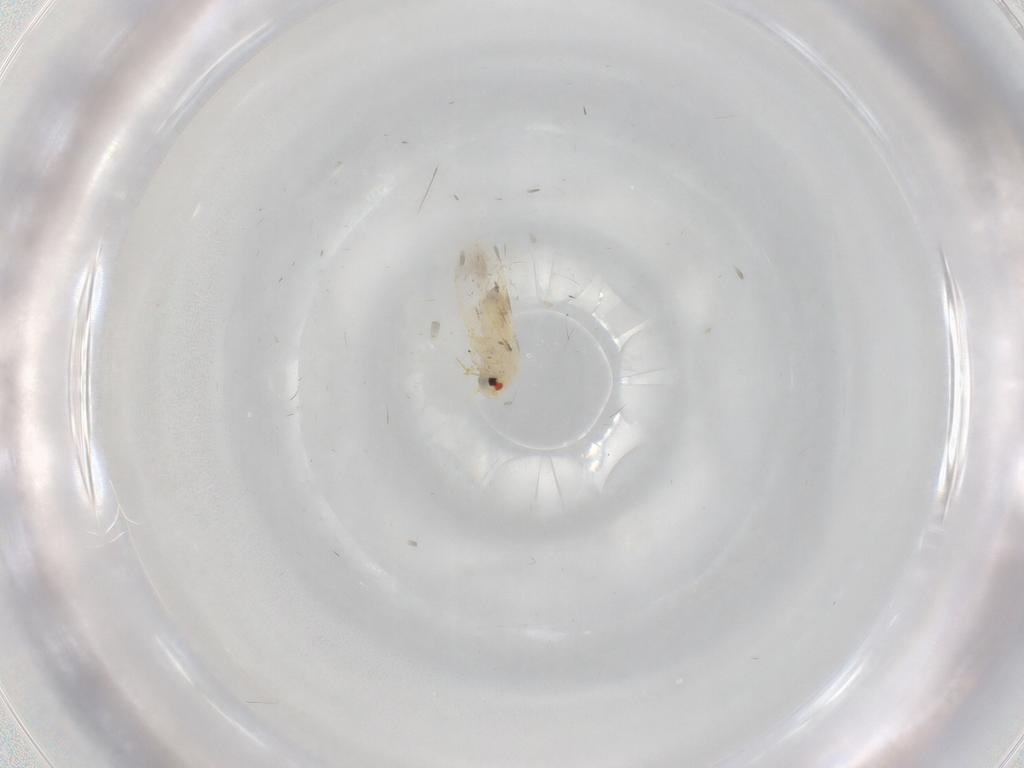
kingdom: Animalia
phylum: Arthropoda
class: Insecta
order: Hemiptera
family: Aleyrodidae
